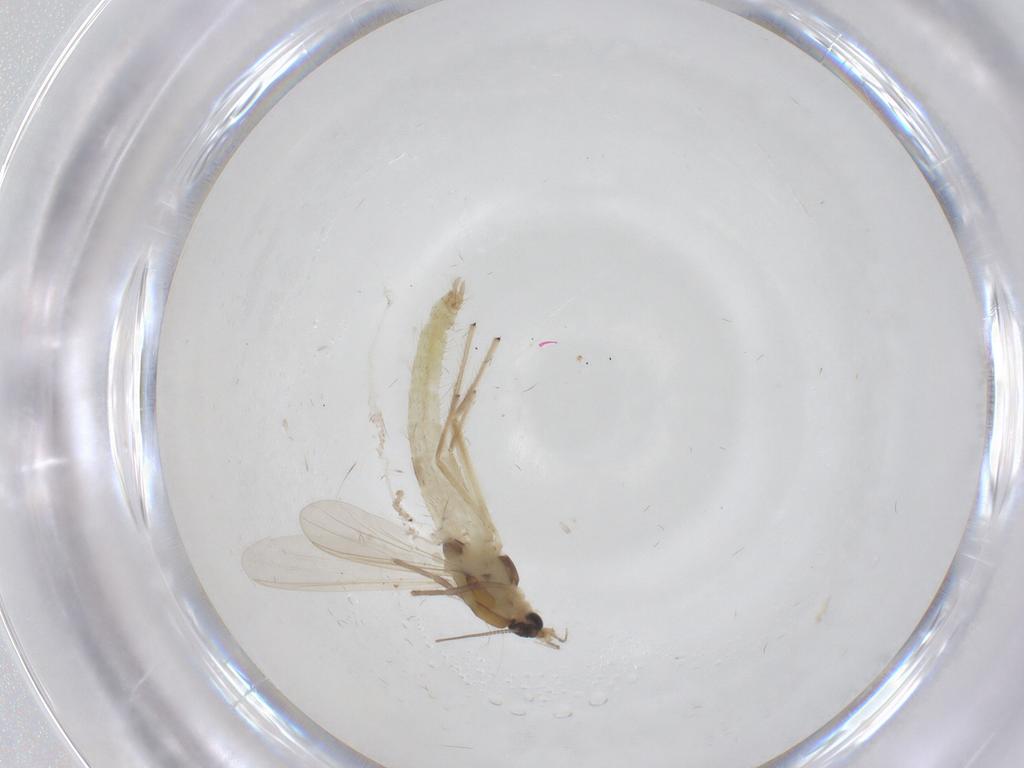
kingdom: Animalia
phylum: Arthropoda
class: Insecta
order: Diptera
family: Chironomidae
